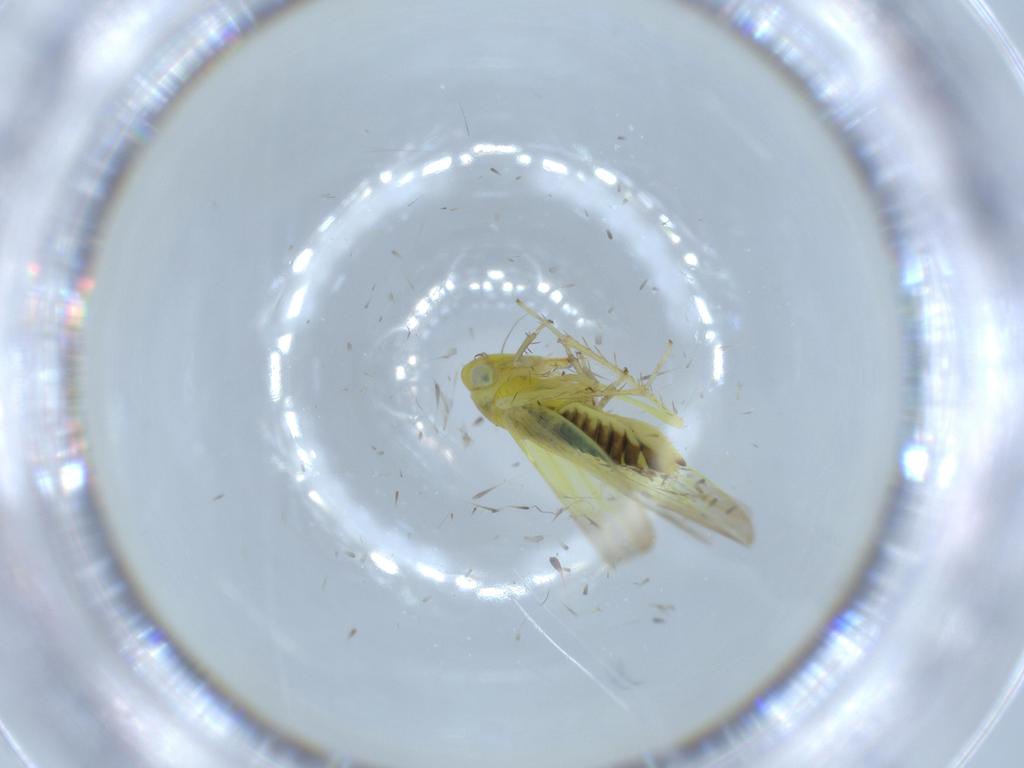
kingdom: Animalia
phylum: Arthropoda
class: Insecta
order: Hemiptera
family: Cicadellidae
